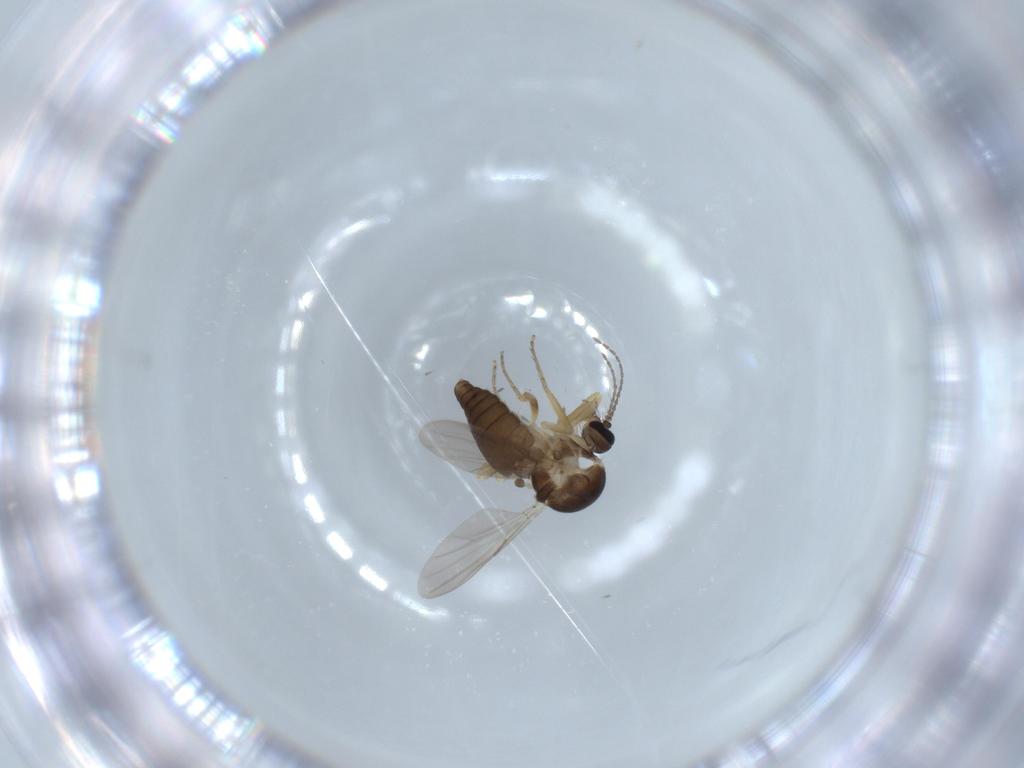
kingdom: Animalia
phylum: Arthropoda
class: Insecta
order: Diptera
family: Ceratopogonidae
